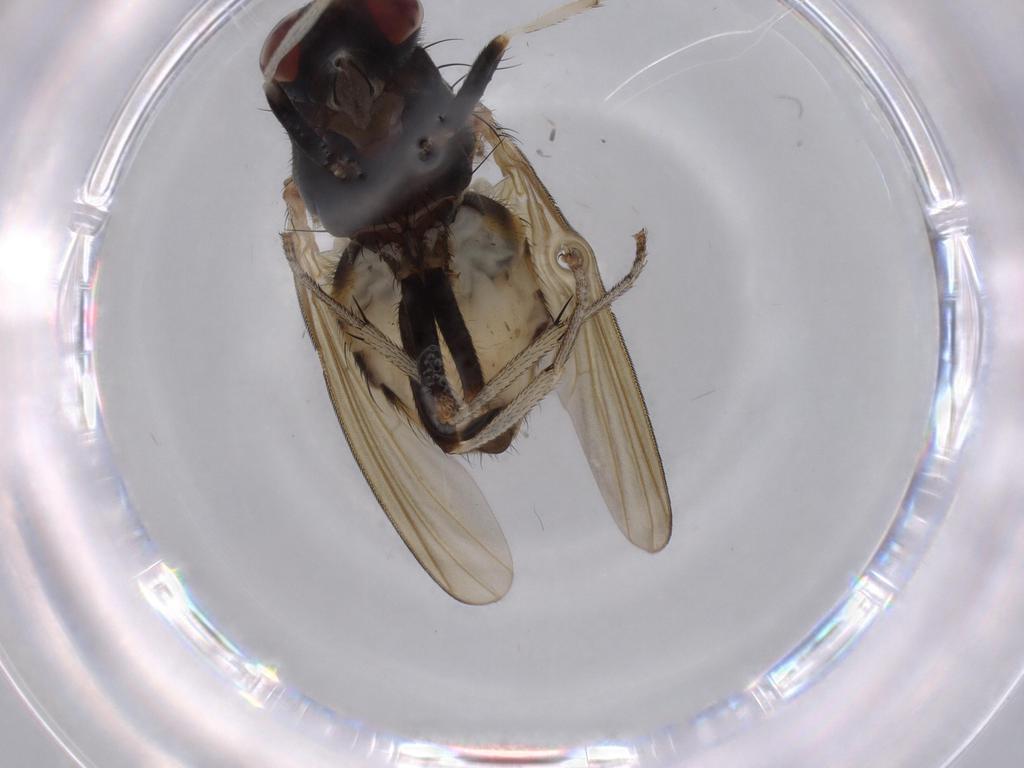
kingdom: Animalia
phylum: Arthropoda
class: Insecta
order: Diptera
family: Lauxaniidae
